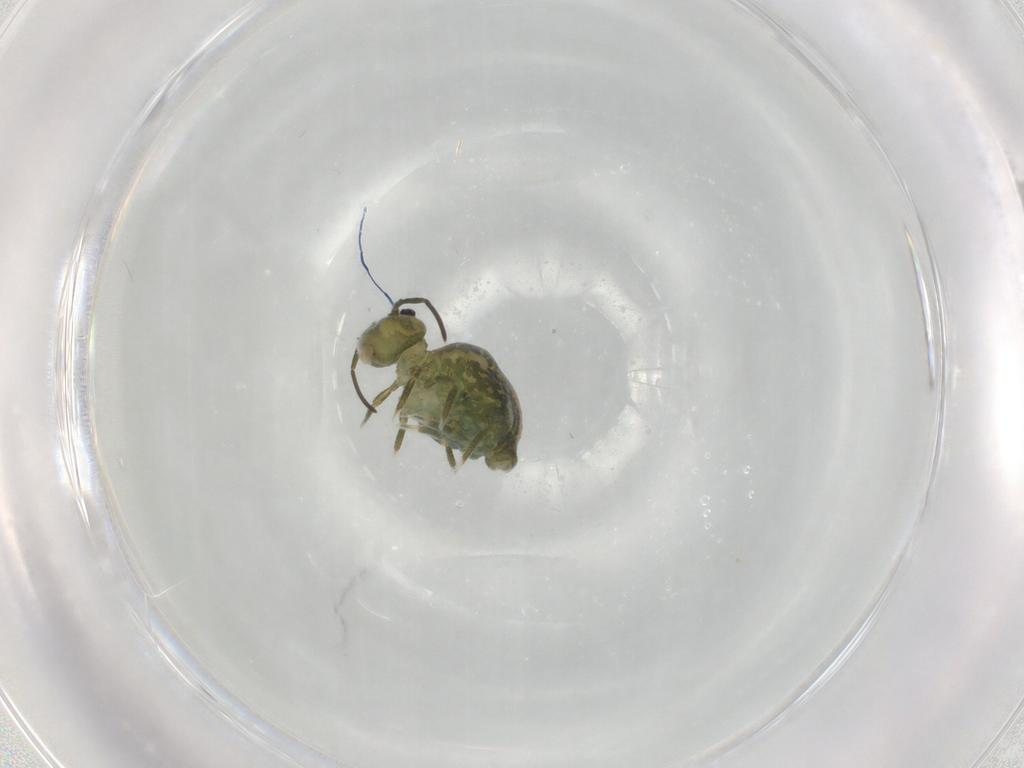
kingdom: Animalia
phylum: Arthropoda
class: Collembola
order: Symphypleona
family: Sminthuridae
